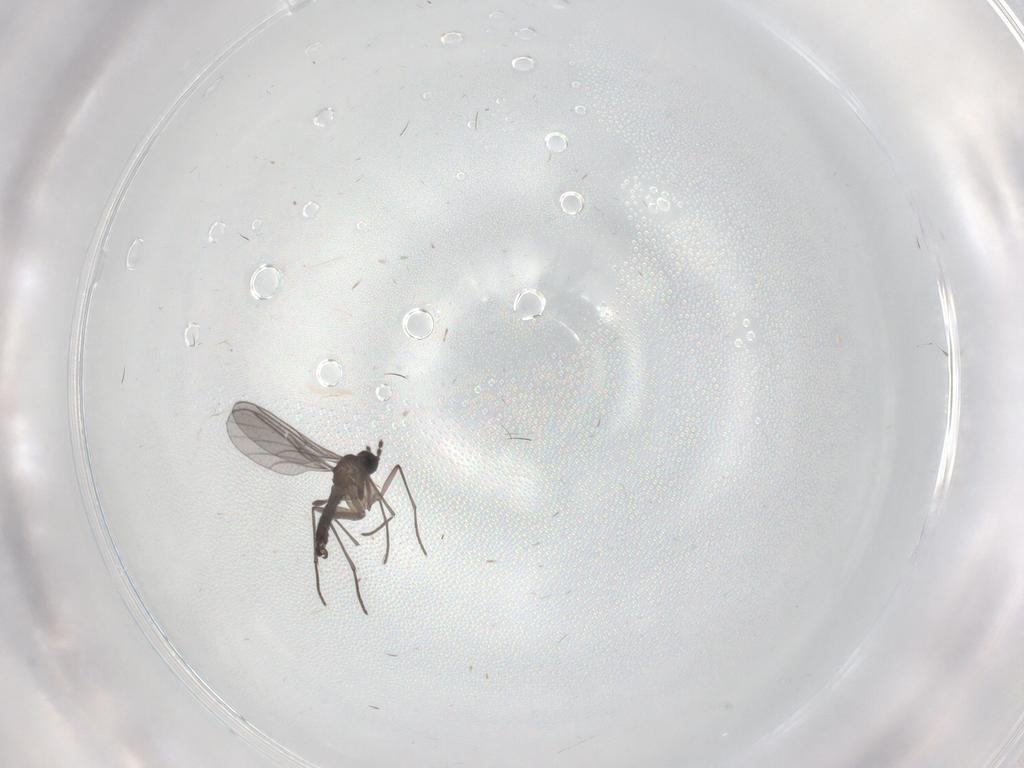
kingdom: Animalia
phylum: Arthropoda
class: Insecta
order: Diptera
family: Tabanidae
